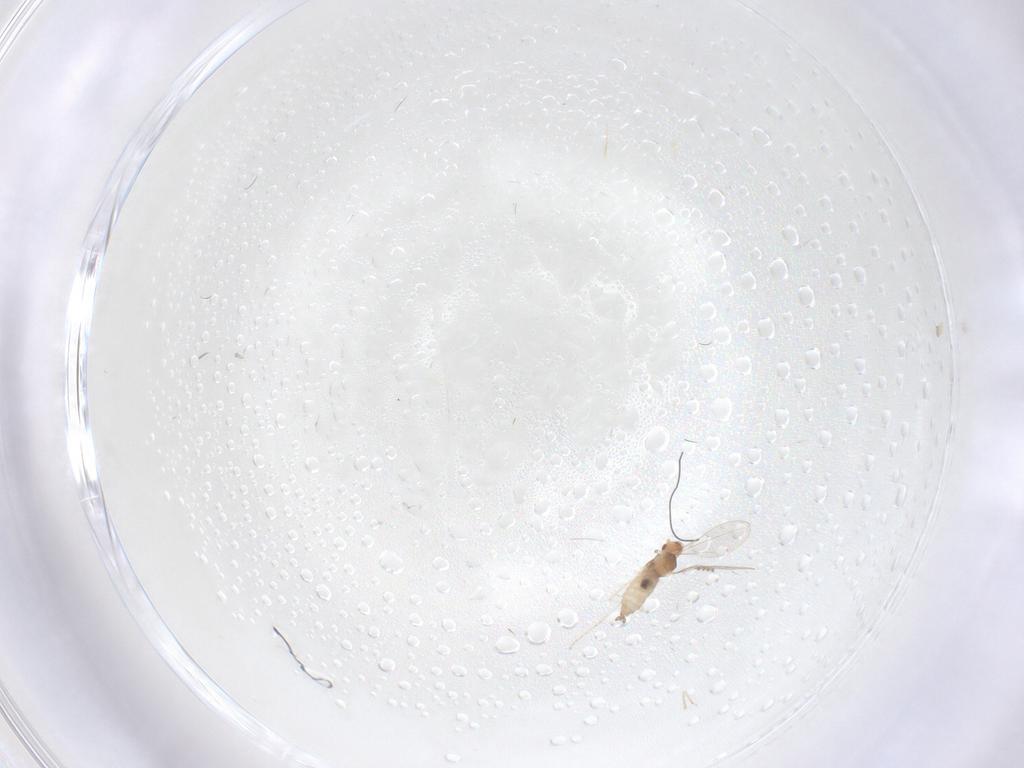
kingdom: Animalia
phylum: Arthropoda
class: Insecta
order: Diptera
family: Cecidomyiidae
